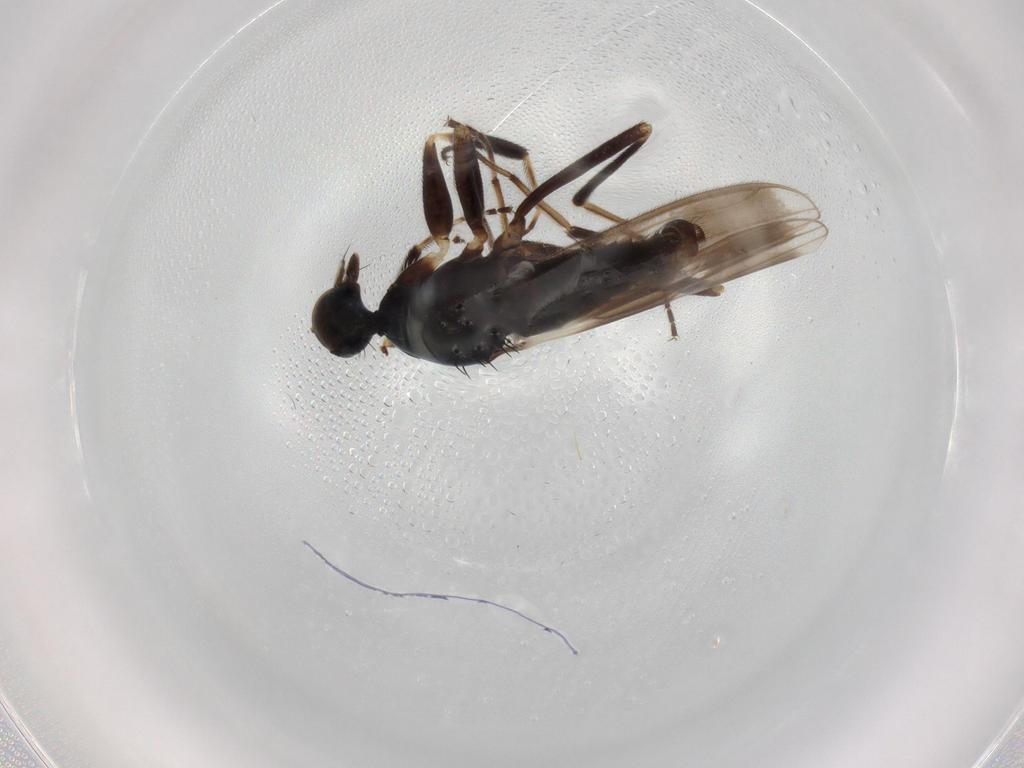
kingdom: Animalia
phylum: Arthropoda
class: Insecta
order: Diptera
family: Hybotidae
